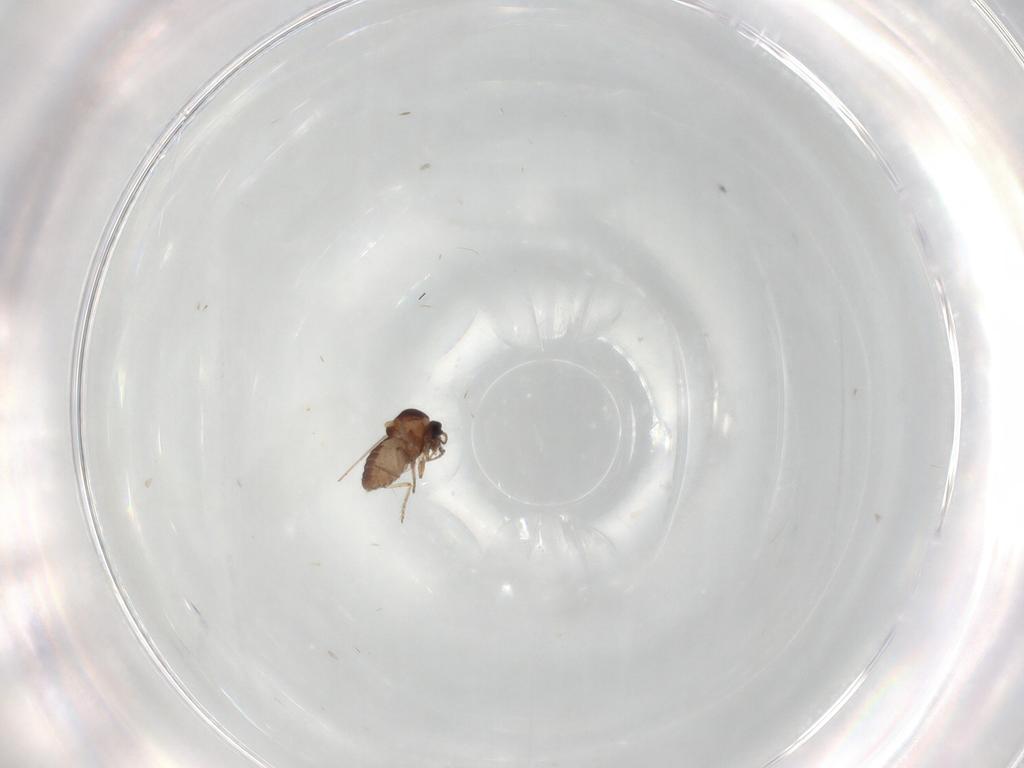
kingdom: Animalia
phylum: Arthropoda
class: Insecta
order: Diptera
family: Ceratopogonidae
